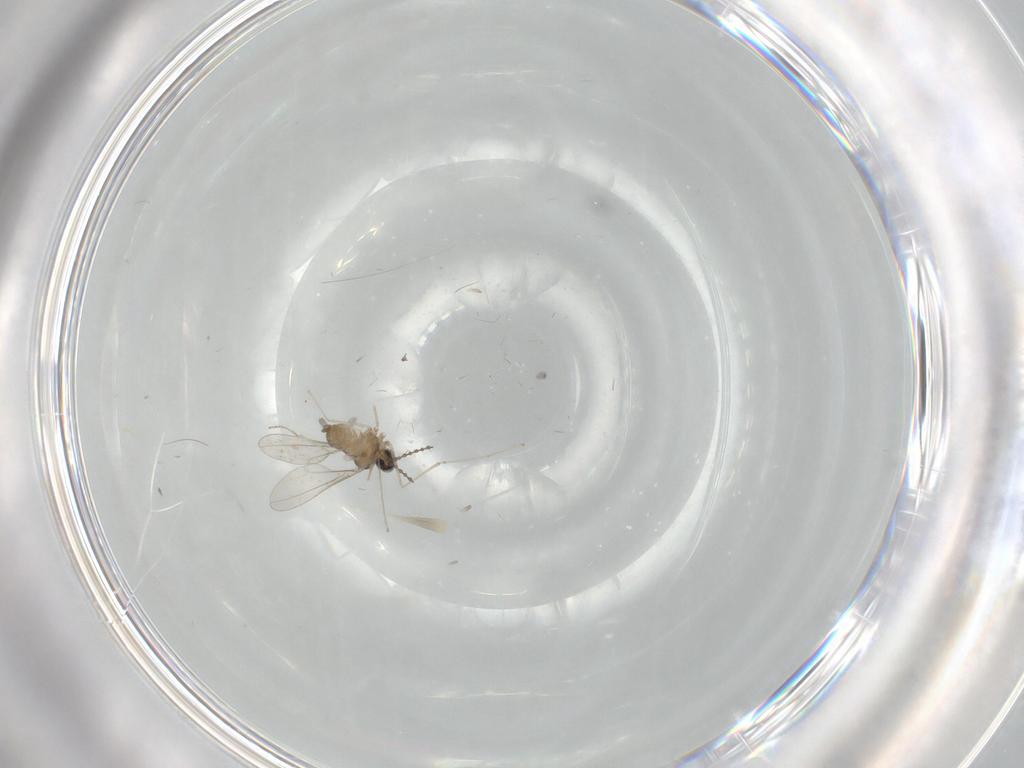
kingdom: Animalia
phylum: Arthropoda
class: Insecta
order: Diptera
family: Cecidomyiidae
